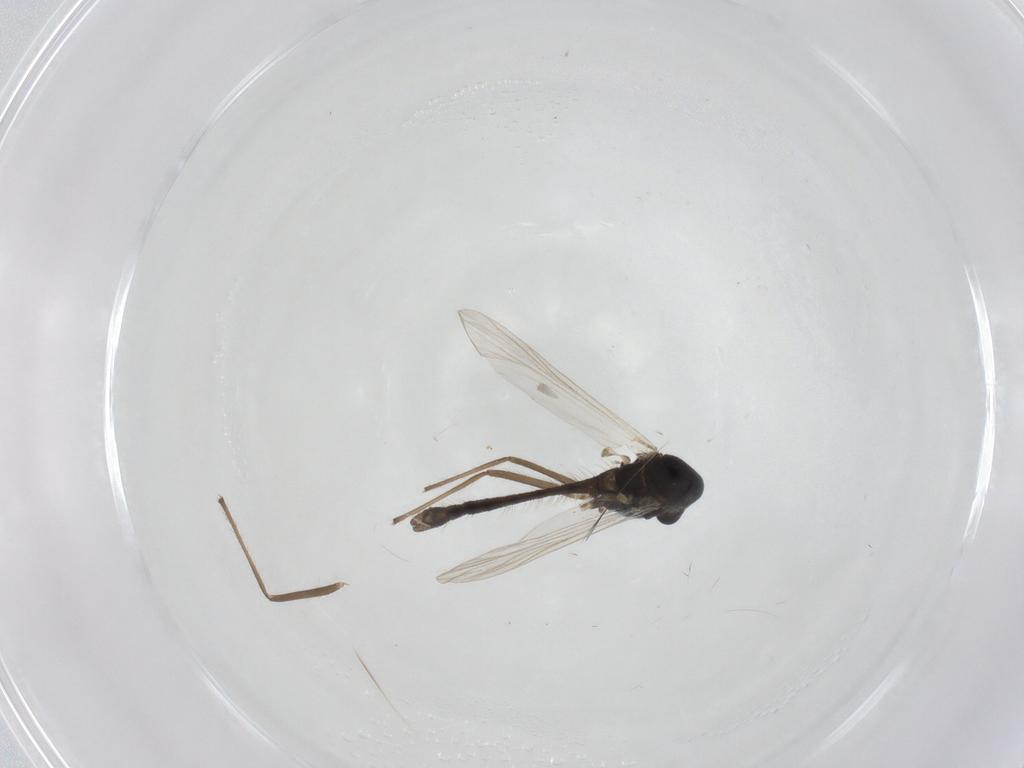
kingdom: Animalia
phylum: Arthropoda
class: Insecta
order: Diptera
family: Chironomidae
